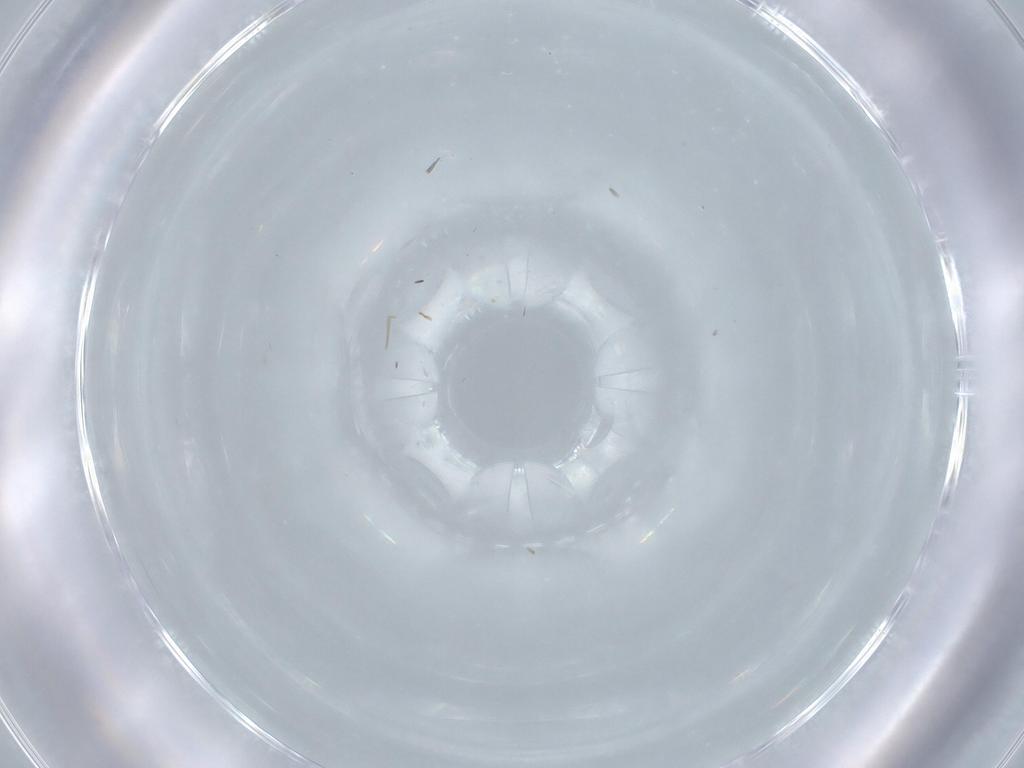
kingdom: Animalia
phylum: Arthropoda
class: Insecta
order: Diptera
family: Cecidomyiidae
